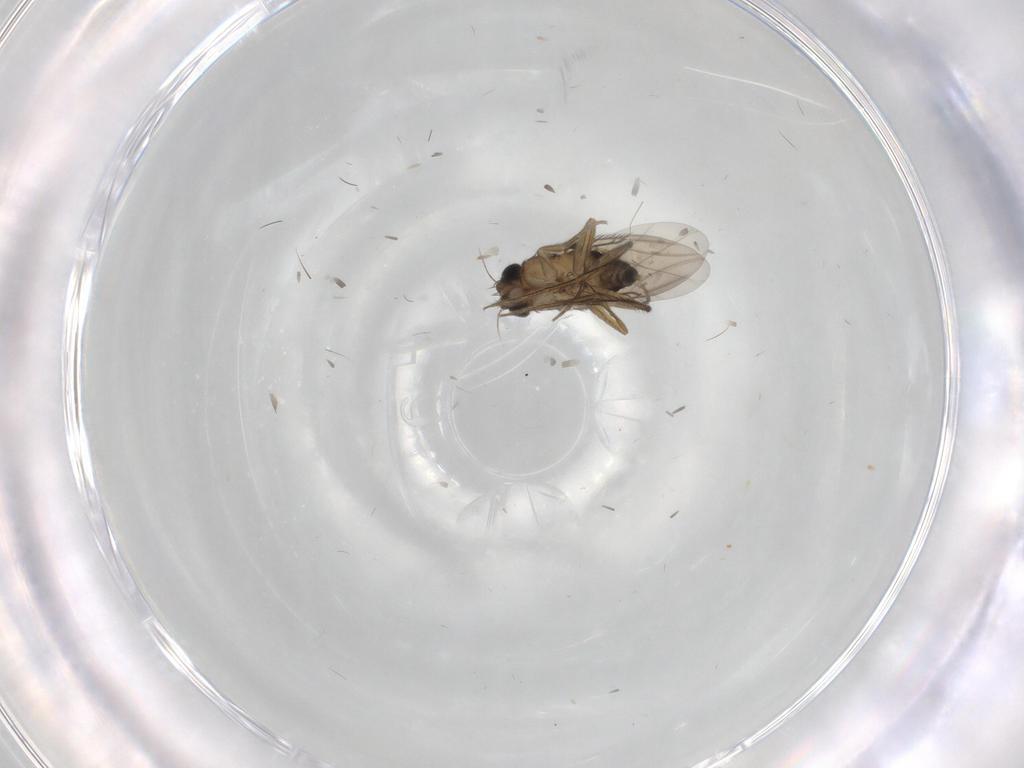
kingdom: Animalia
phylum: Arthropoda
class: Insecta
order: Diptera
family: Phoridae
